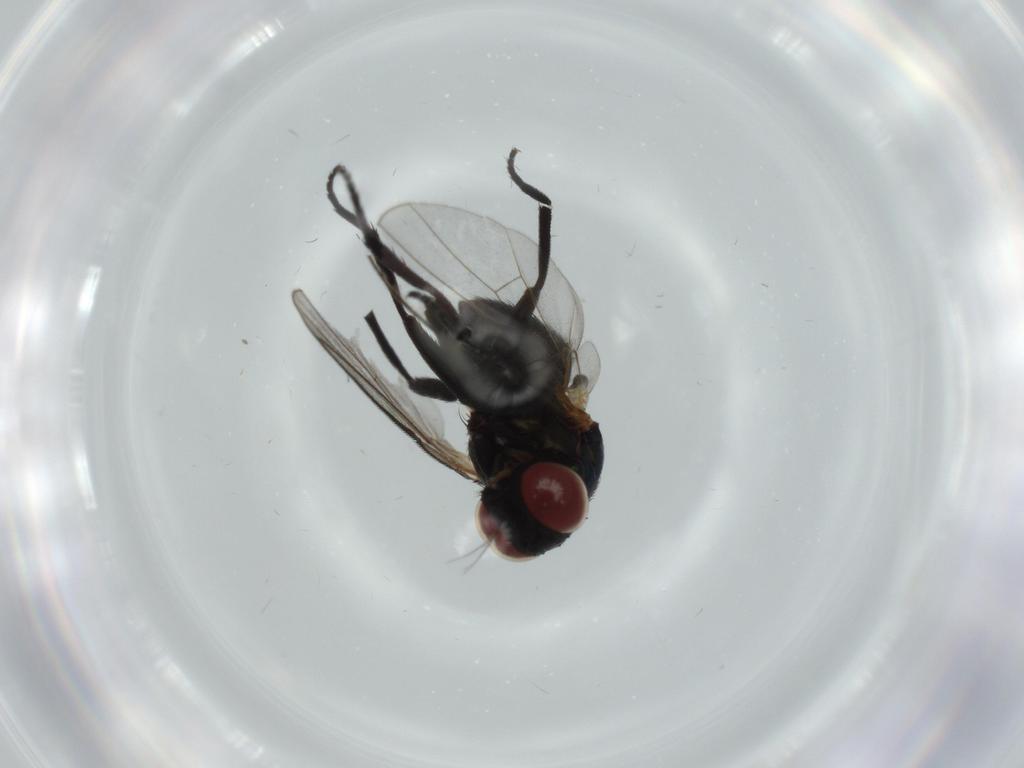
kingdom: Animalia
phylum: Arthropoda
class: Insecta
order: Diptera
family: Agromyzidae
